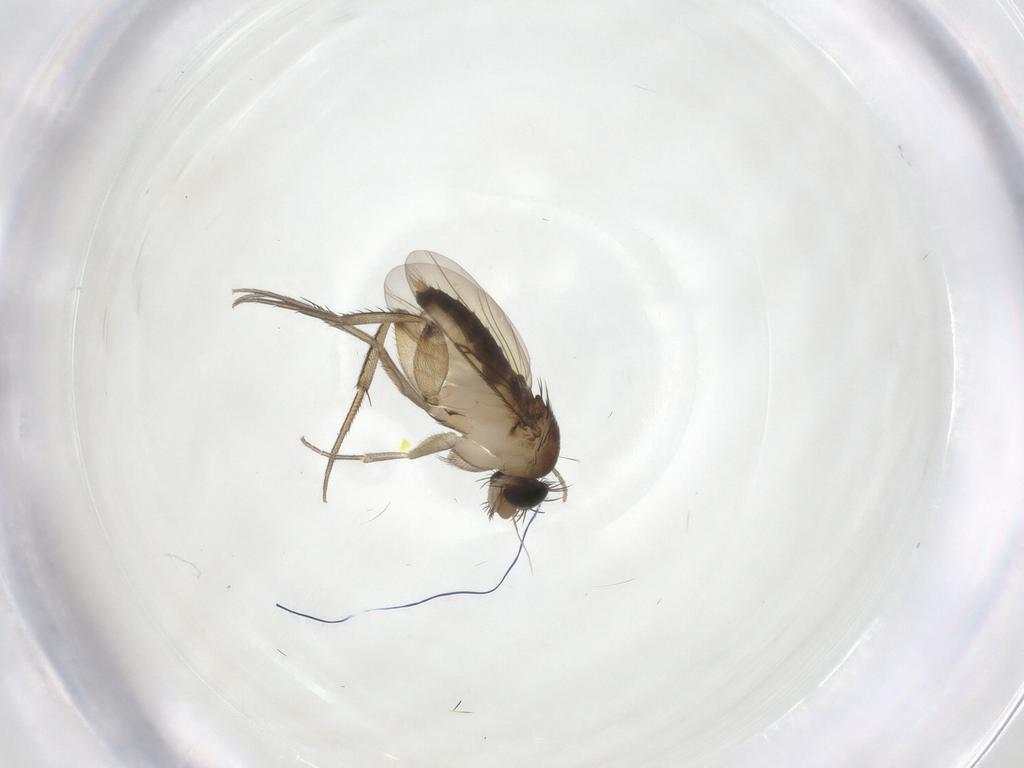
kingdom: Animalia
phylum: Arthropoda
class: Insecta
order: Diptera
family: Phoridae
